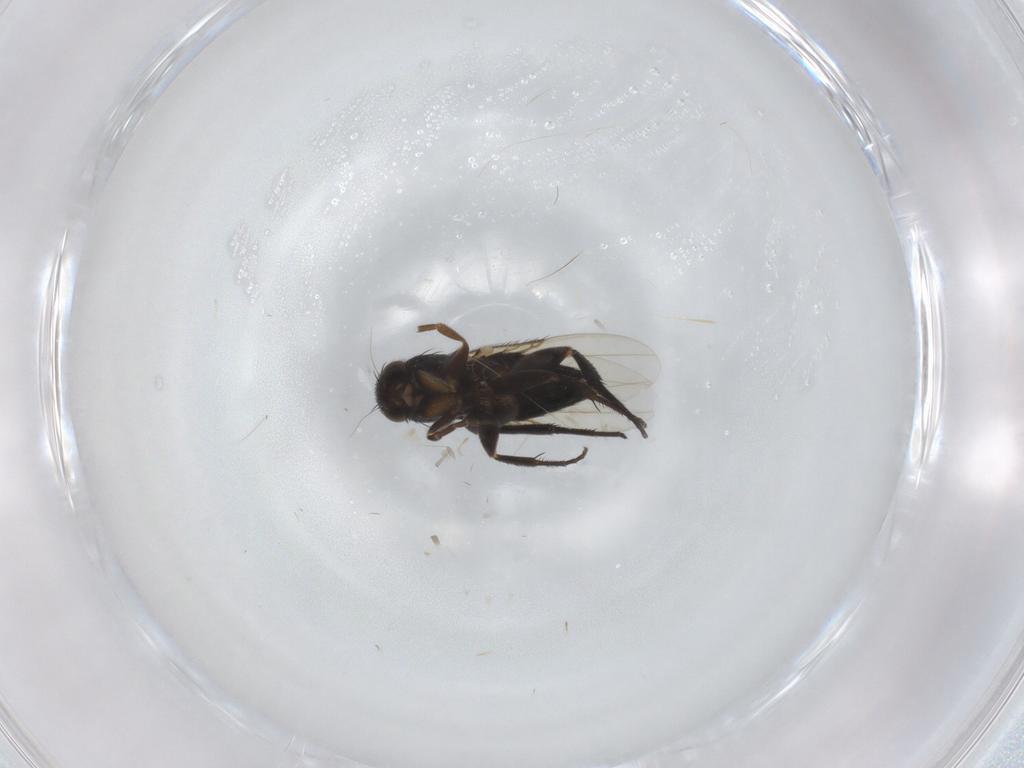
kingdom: Animalia
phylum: Arthropoda
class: Insecta
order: Diptera
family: Phoridae
